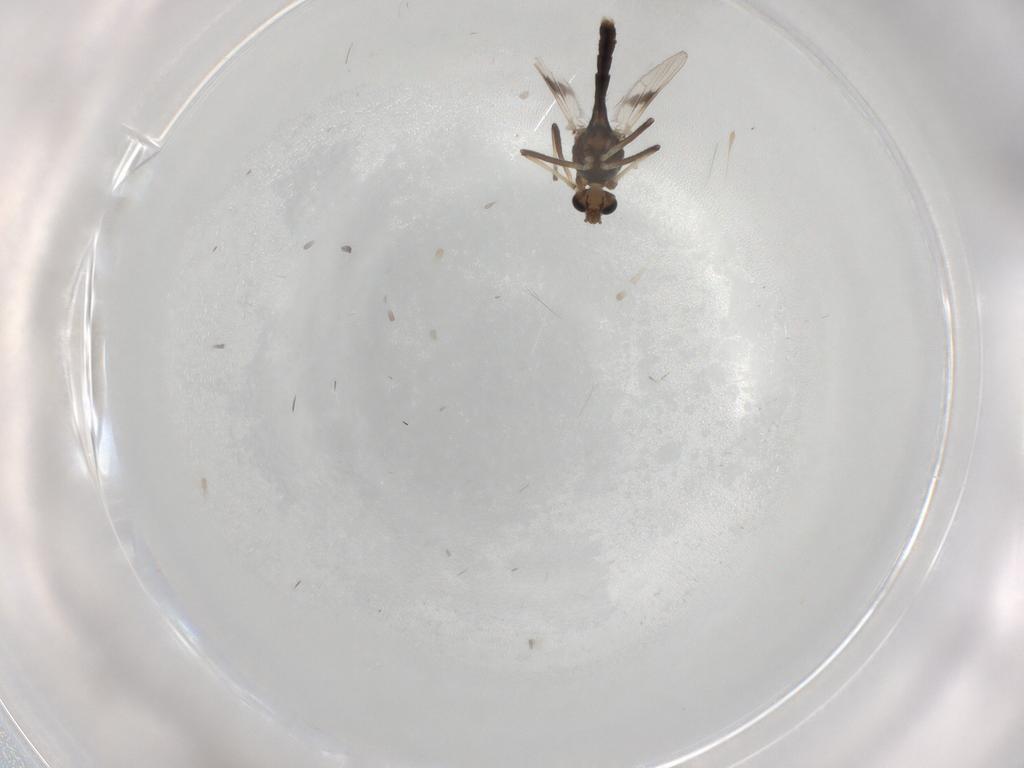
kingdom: Animalia
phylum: Arthropoda
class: Insecta
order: Diptera
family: Chironomidae
